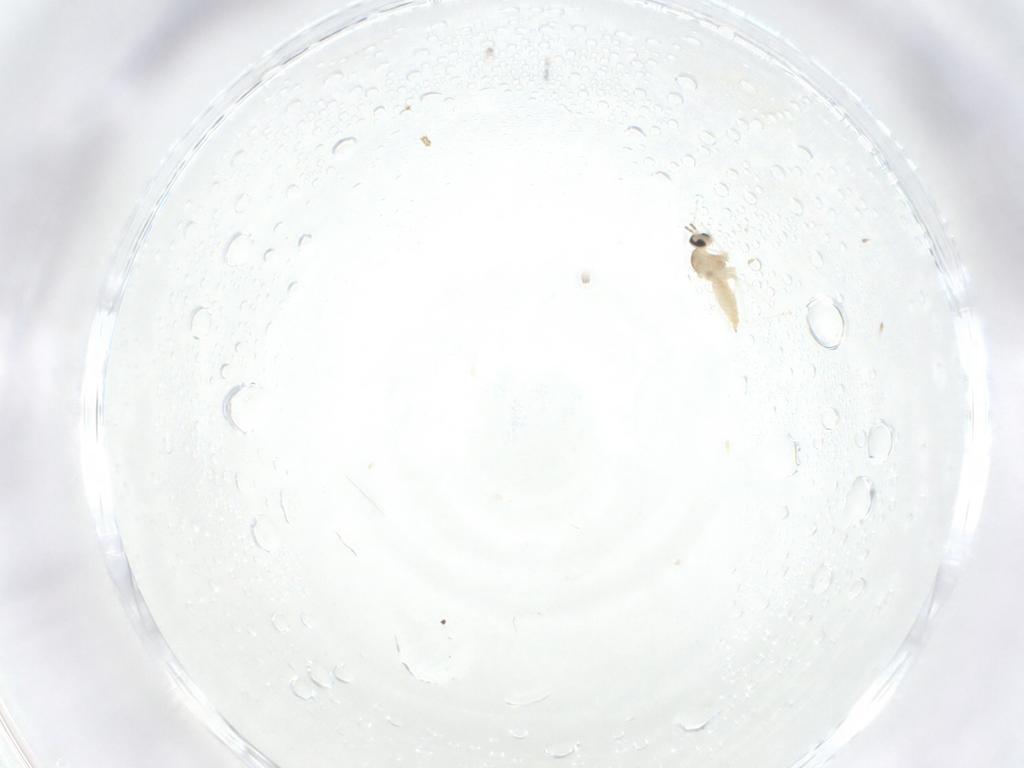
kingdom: Animalia
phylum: Arthropoda
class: Insecta
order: Diptera
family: Cecidomyiidae
